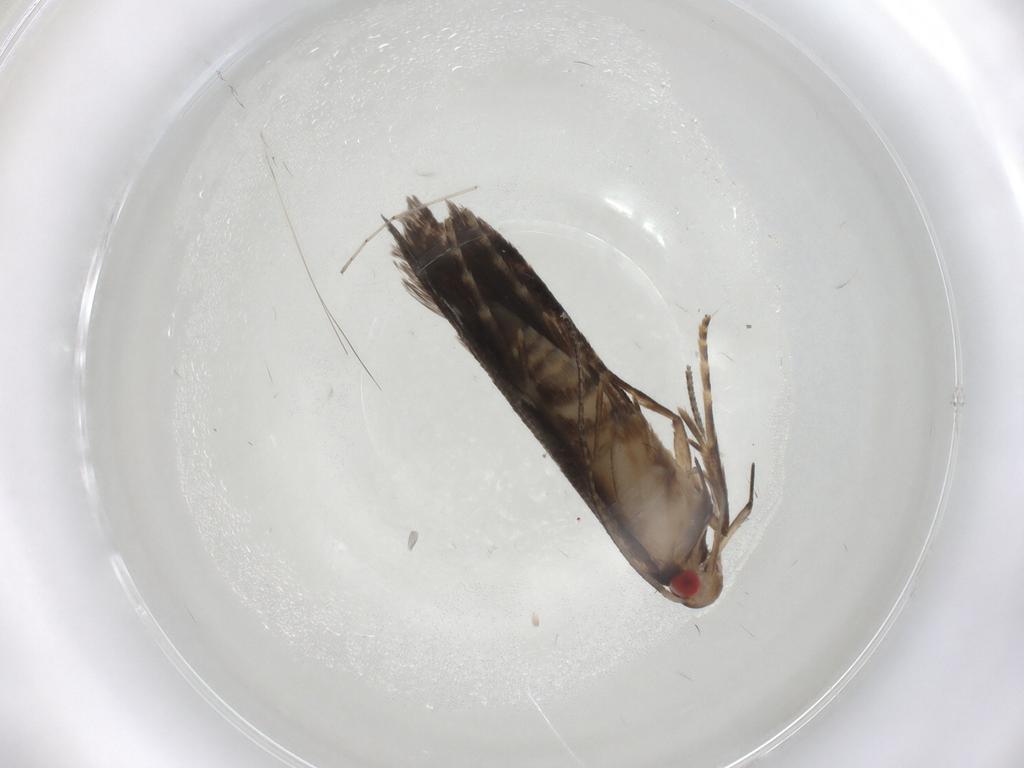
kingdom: Animalia
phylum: Arthropoda
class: Insecta
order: Lepidoptera
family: Gelechiidae
